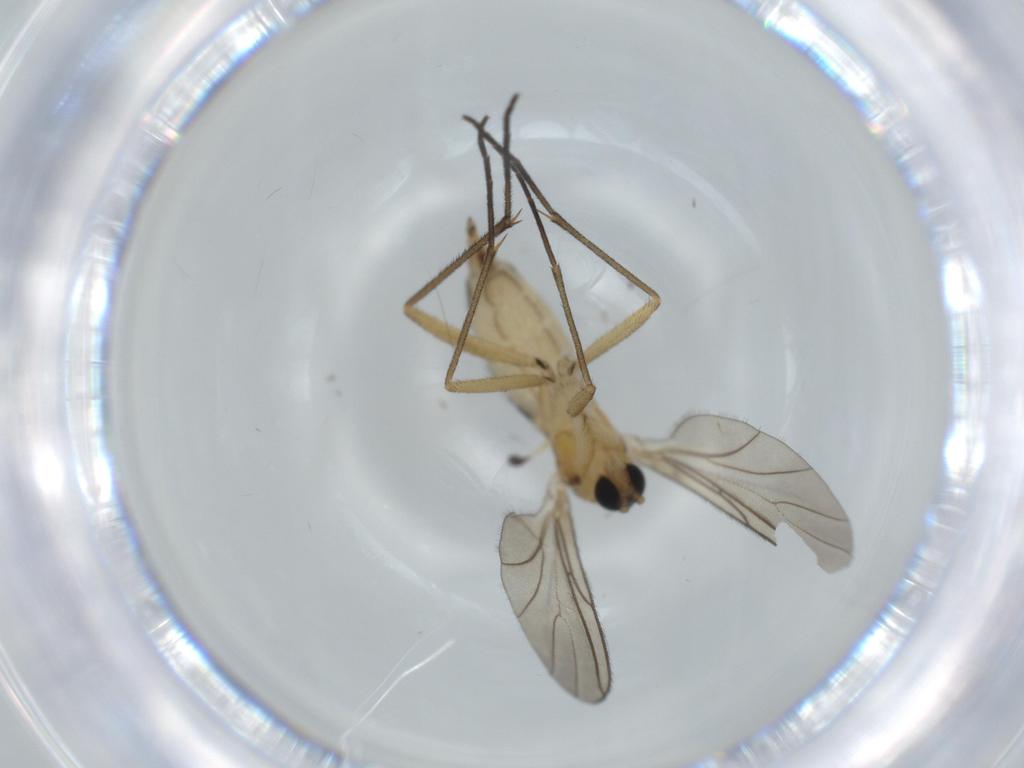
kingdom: Animalia
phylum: Arthropoda
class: Insecta
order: Diptera
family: Sciaridae
